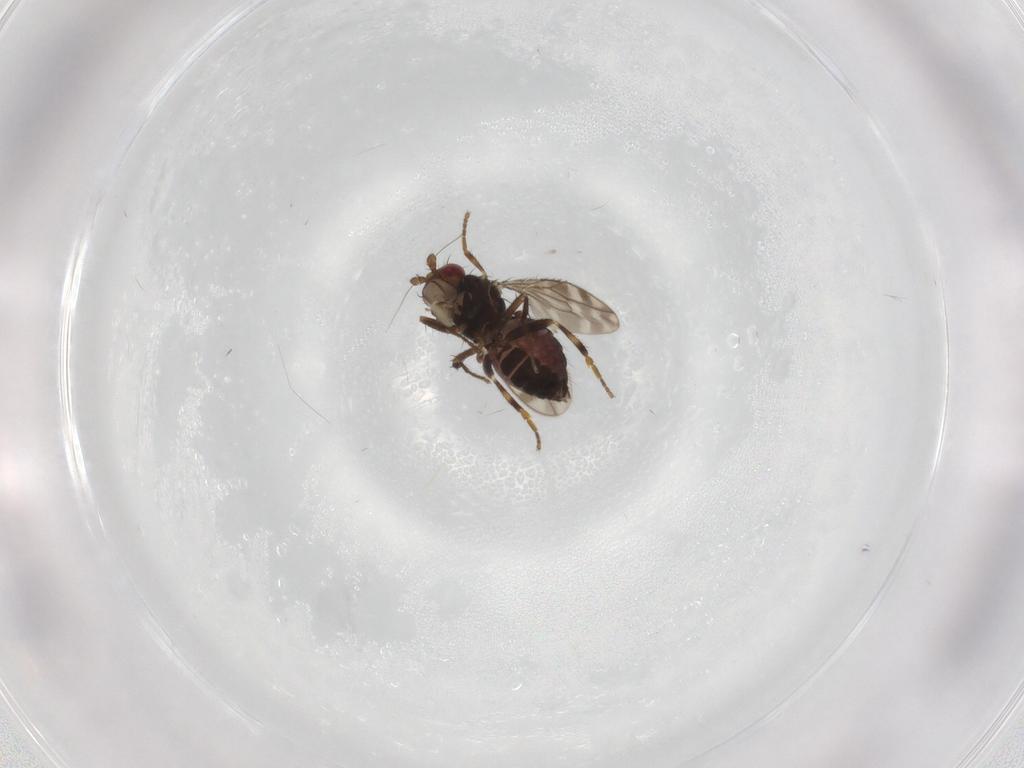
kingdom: Animalia
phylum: Arthropoda
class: Insecta
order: Diptera
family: Sphaeroceridae
